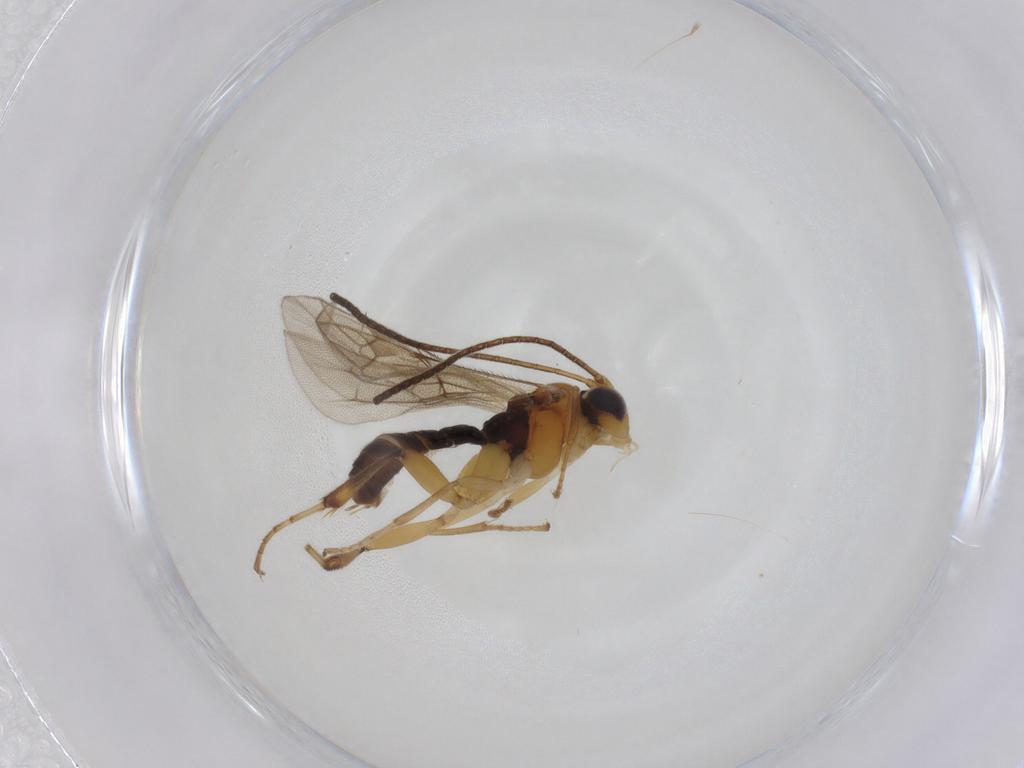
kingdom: Animalia
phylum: Arthropoda
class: Insecta
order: Hymenoptera
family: Ichneumonidae
